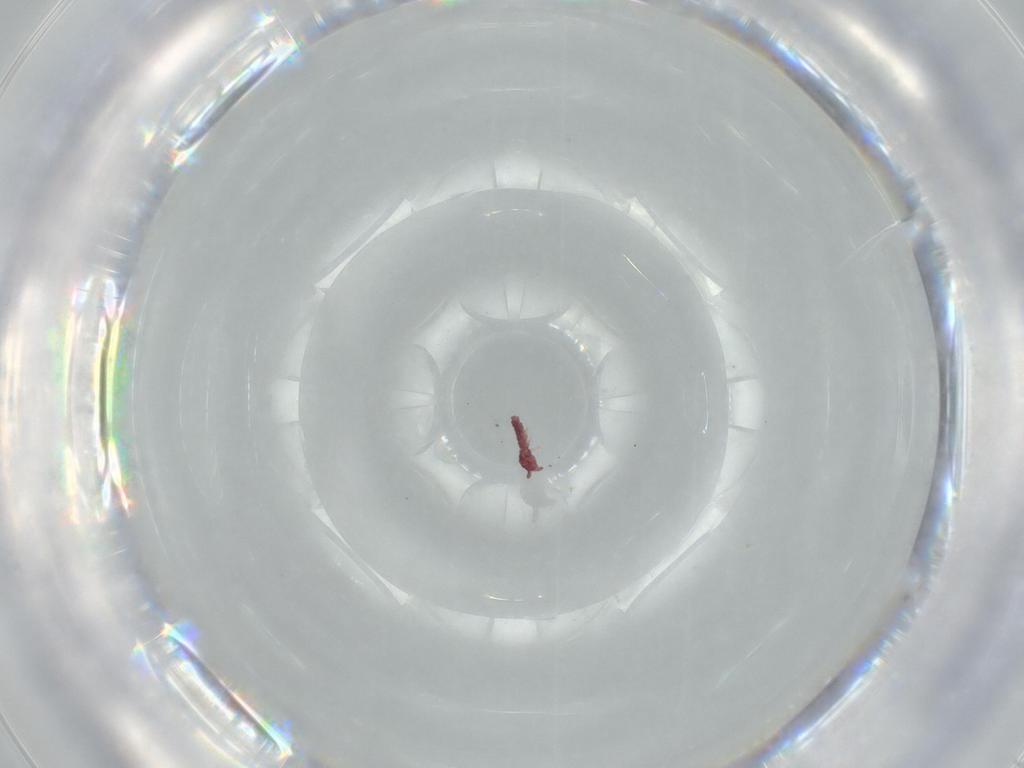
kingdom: Animalia
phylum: Arthropoda
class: Collembola
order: Poduromorpha
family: Hypogastruridae
